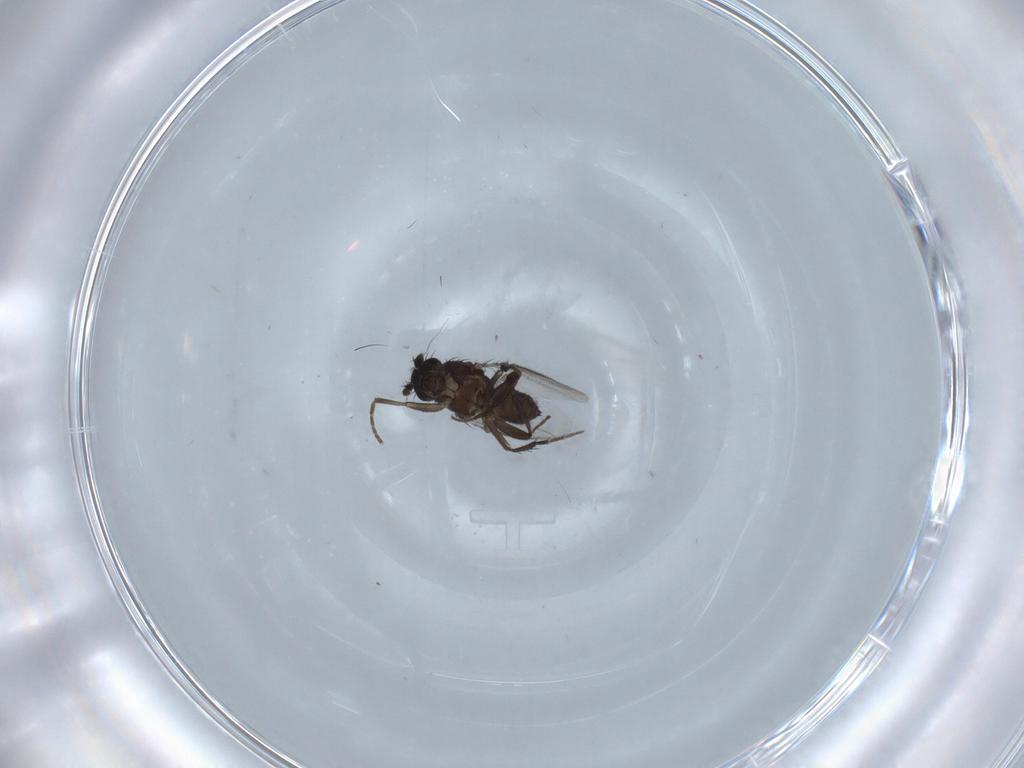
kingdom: Animalia
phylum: Arthropoda
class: Insecta
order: Diptera
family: Sphaeroceridae
